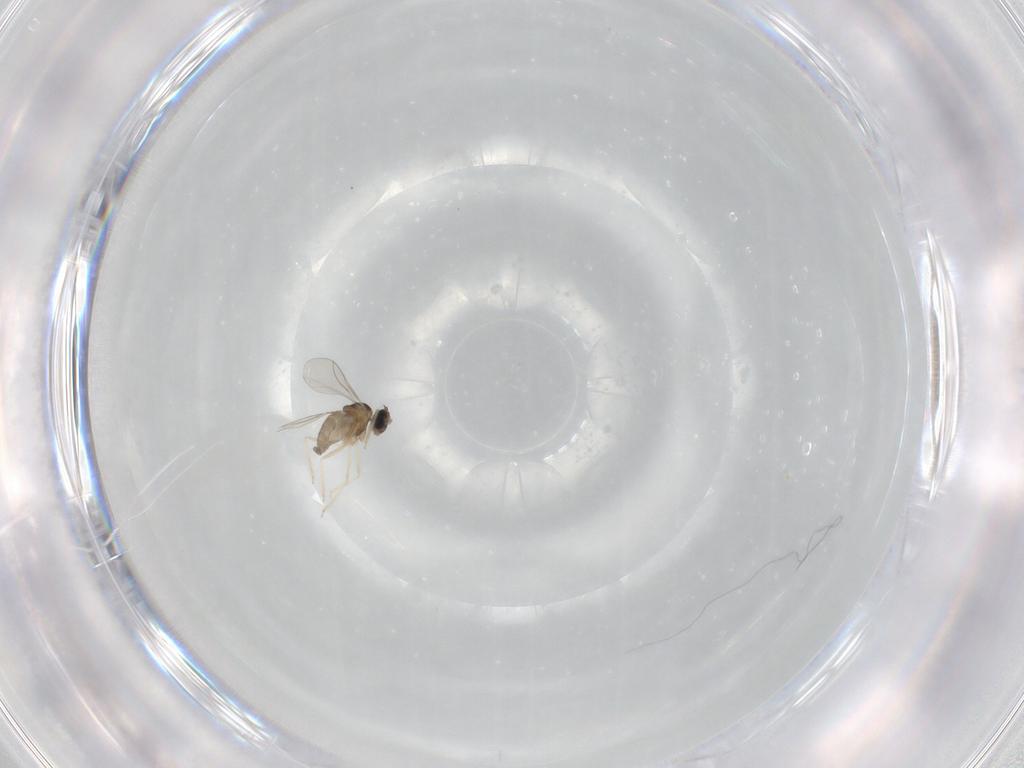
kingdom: Animalia
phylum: Arthropoda
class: Insecta
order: Diptera
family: Cecidomyiidae
